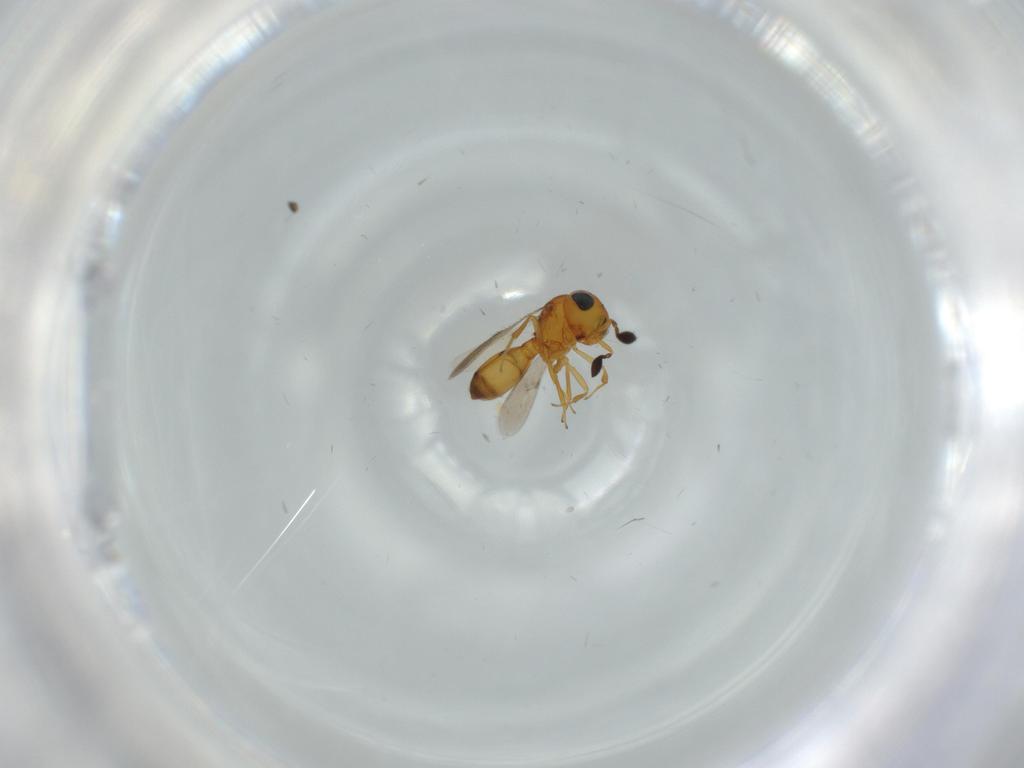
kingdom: Animalia
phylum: Arthropoda
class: Insecta
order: Hymenoptera
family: Scelionidae
